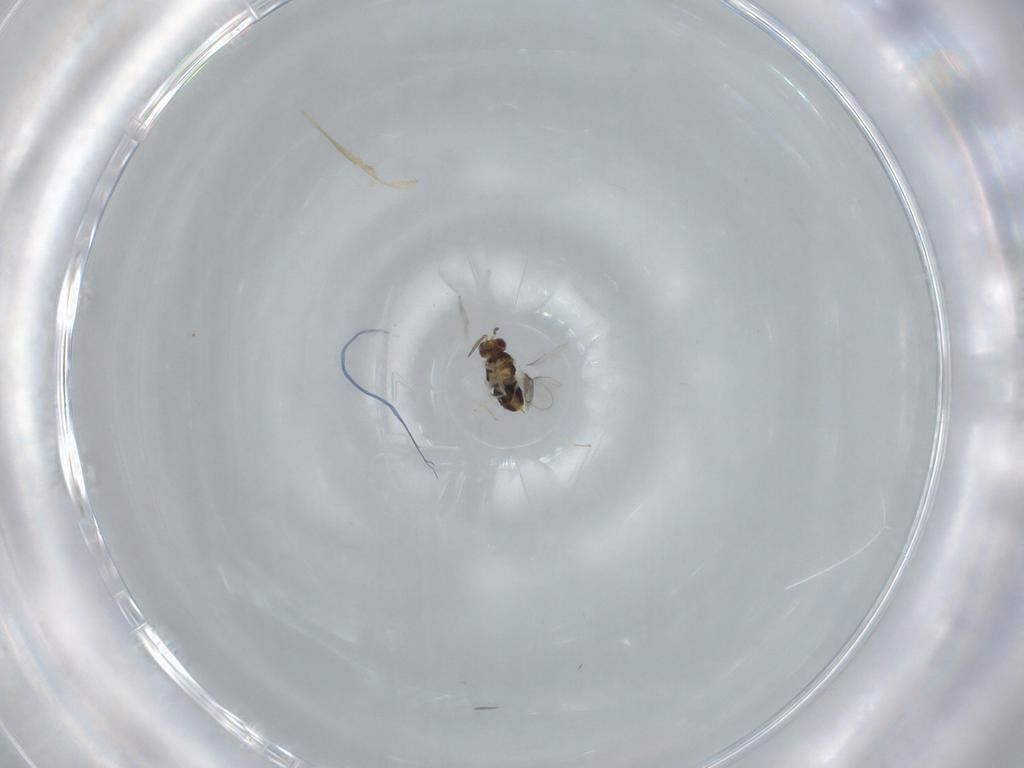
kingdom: Animalia
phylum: Arthropoda
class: Insecta
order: Hymenoptera
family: Aphelinidae
